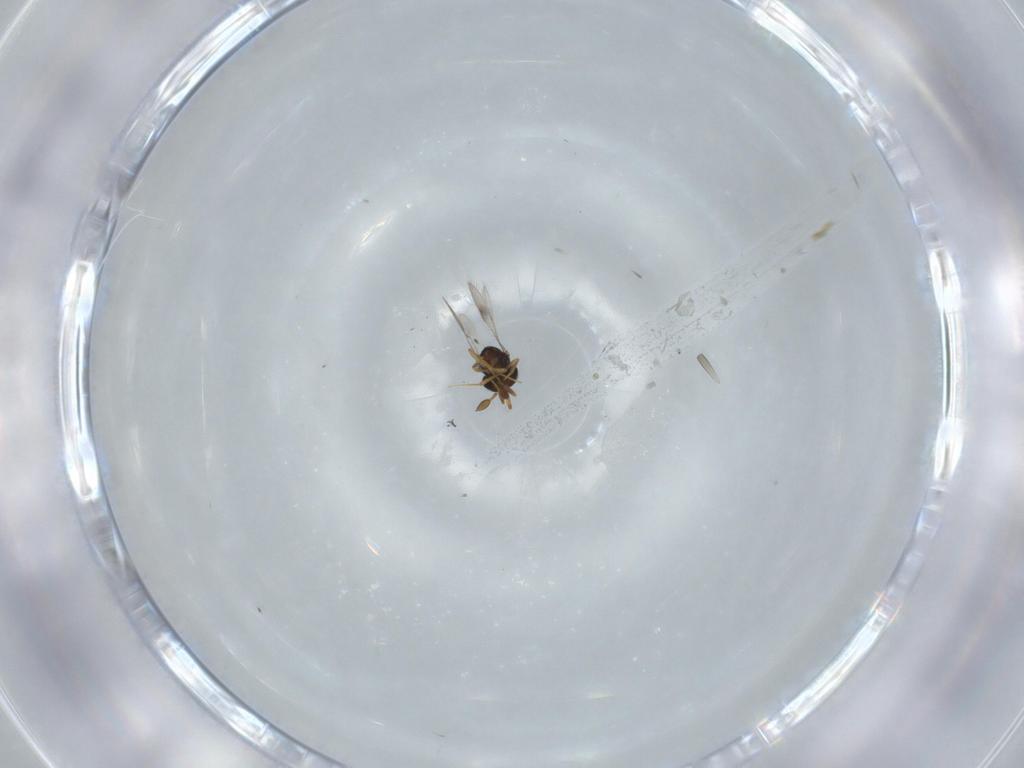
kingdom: Animalia
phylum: Arthropoda
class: Insecta
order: Hymenoptera
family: Scelionidae
